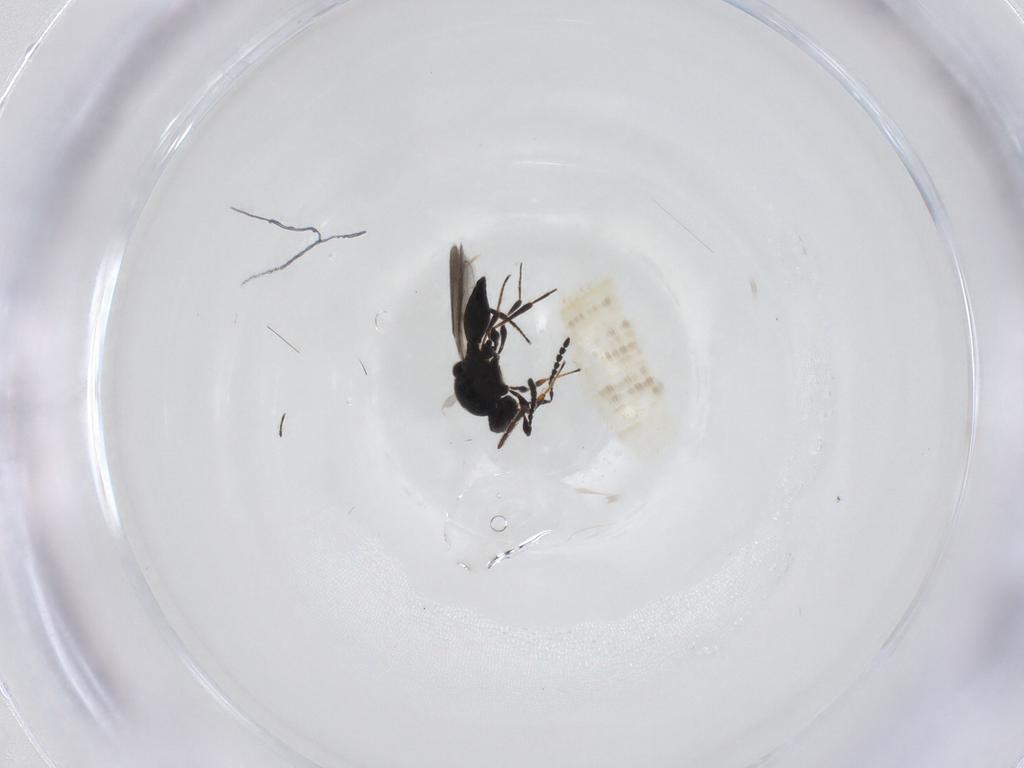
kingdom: Animalia
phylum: Arthropoda
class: Insecta
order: Hymenoptera
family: Platygastridae
